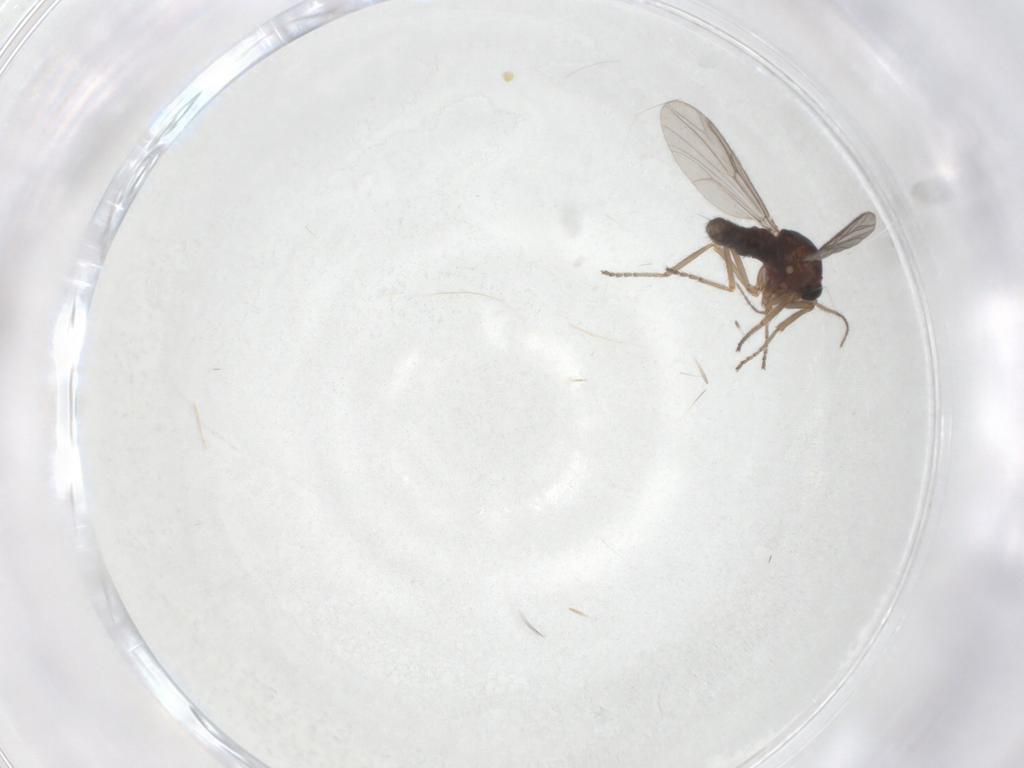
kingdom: Animalia
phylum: Arthropoda
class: Insecta
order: Diptera
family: Ceratopogonidae
